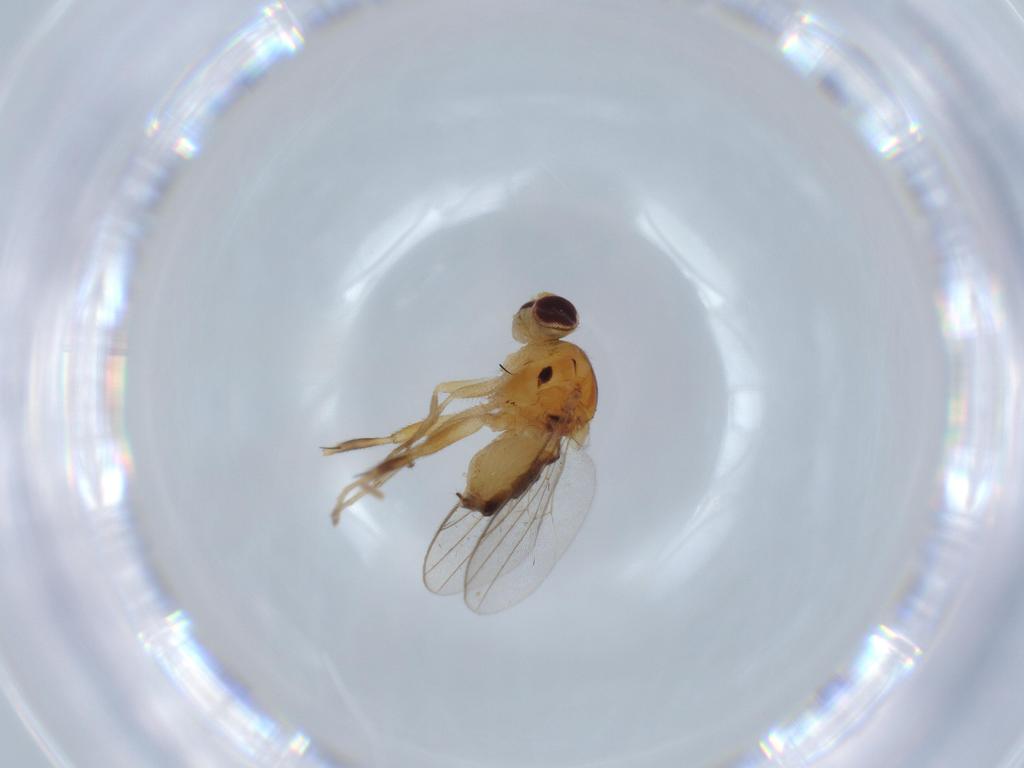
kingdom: Animalia
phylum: Arthropoda
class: Insecta
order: Diptera
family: Chloropidae
